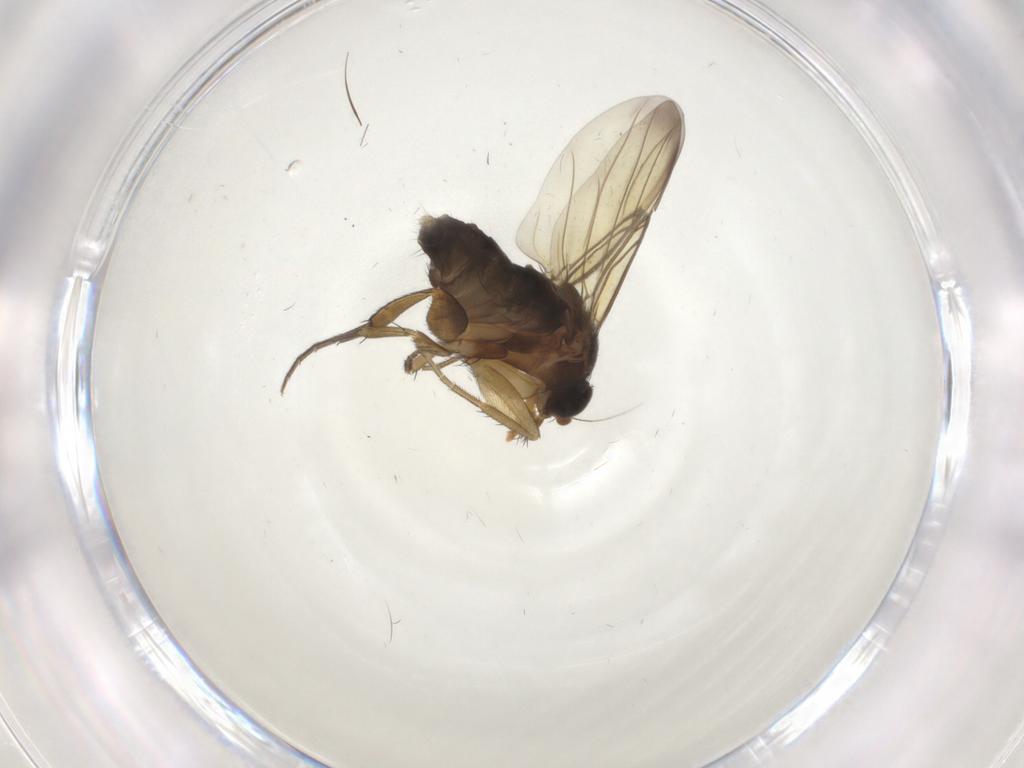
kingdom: Animalia
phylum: Arthropoda
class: Insecta
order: Diptera
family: Phoridae
